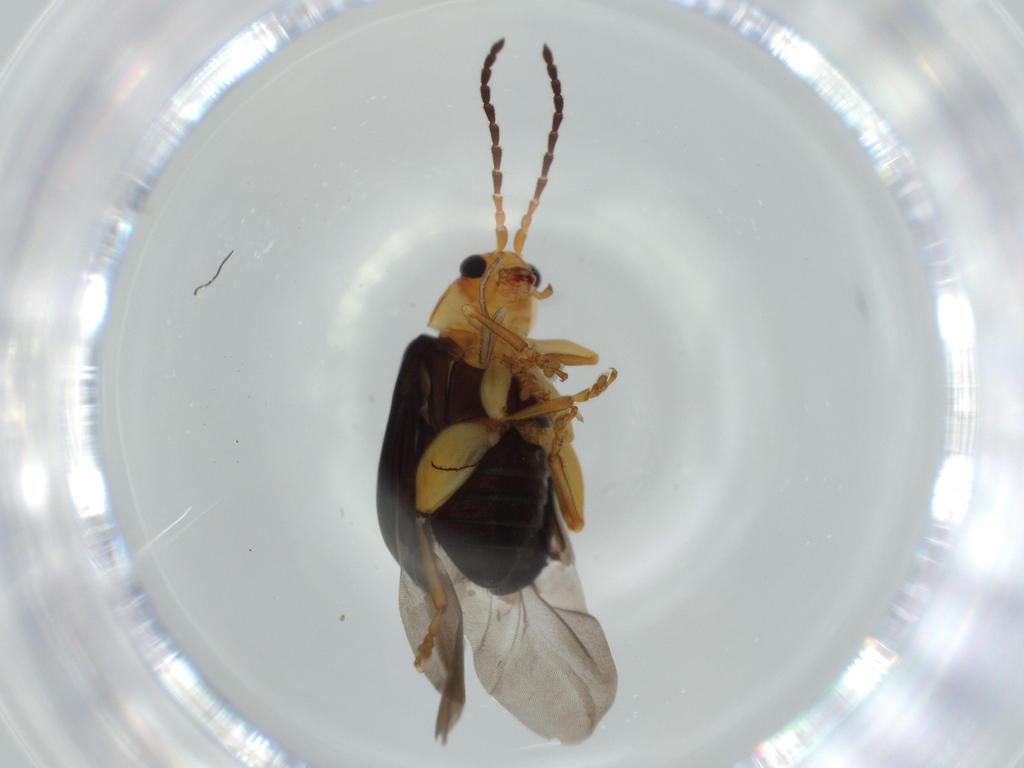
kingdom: Animalia
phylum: Arthropoda
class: Insecta
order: Coleoptera
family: Chrysomelidae
